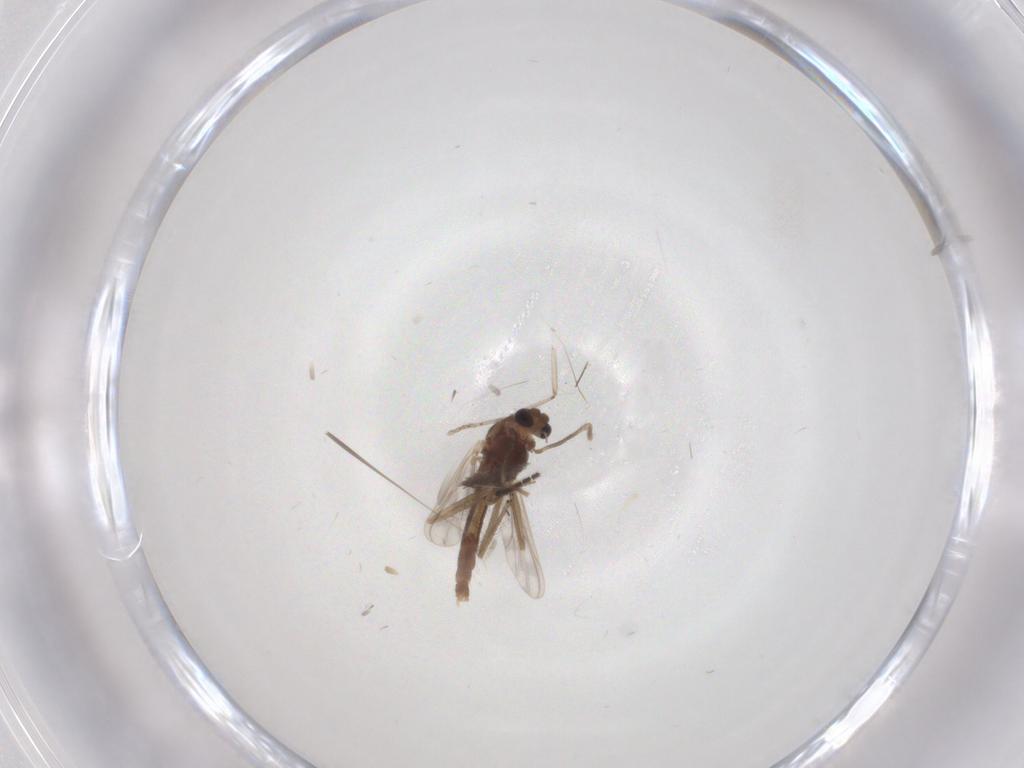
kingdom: Animalia
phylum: Arthropoda
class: Insecta
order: Diptera
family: Chironomidae
